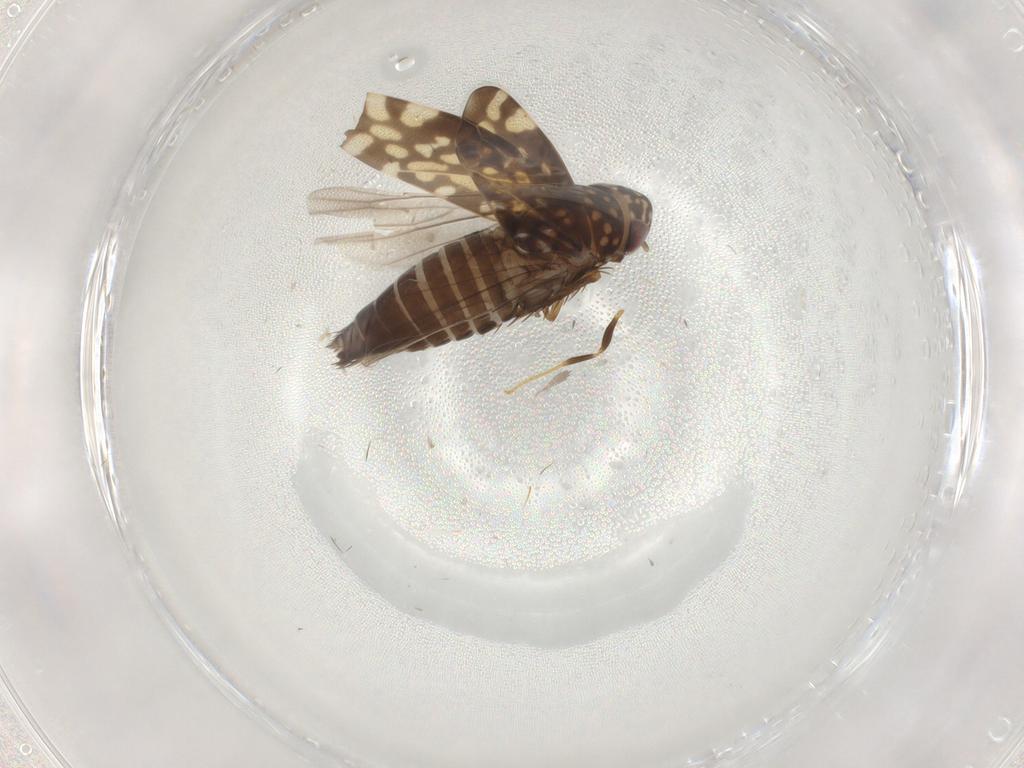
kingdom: Animalia
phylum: Arthropoda
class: Insecta
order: Hemiptera
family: Cicadellidae
